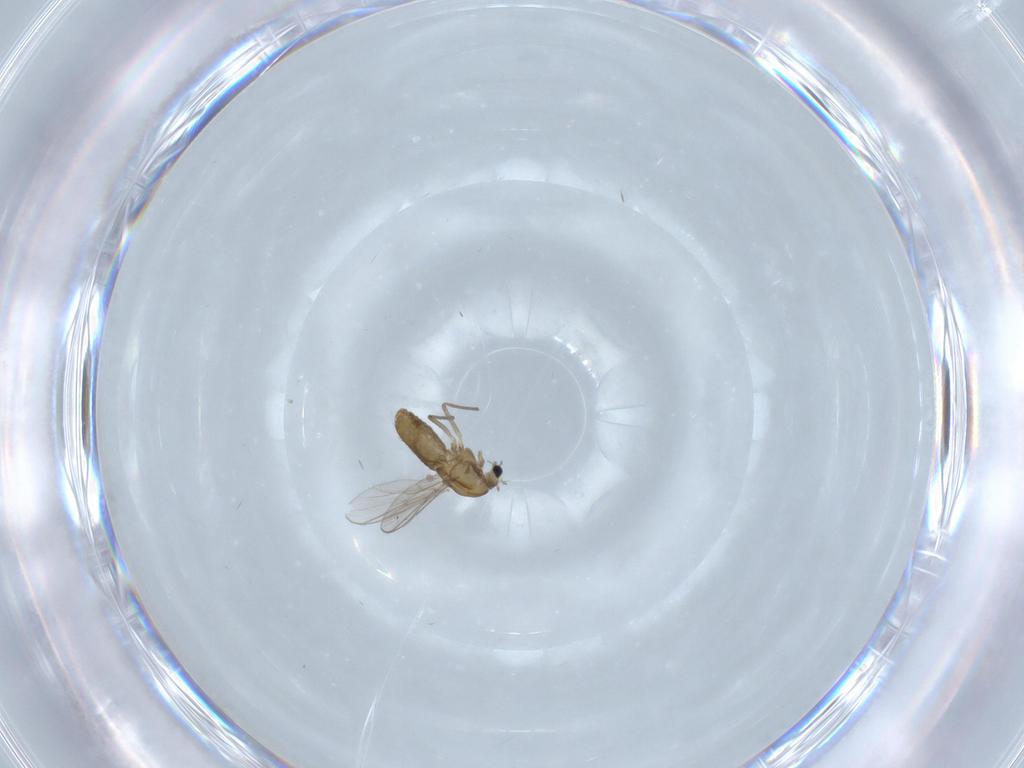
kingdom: Animalia
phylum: Arthropoda
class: Insecta
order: Diptera
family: Chironomidae
